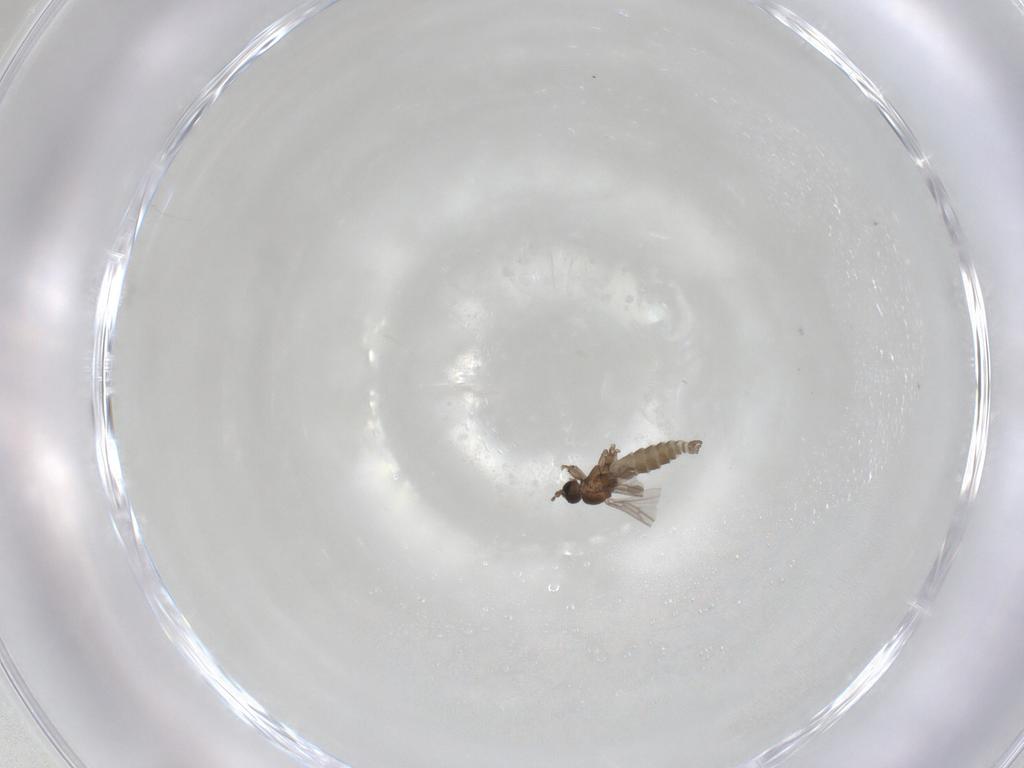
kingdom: Animalia
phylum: Arthropoda
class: Insecta
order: Diptera
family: Sciaridae
